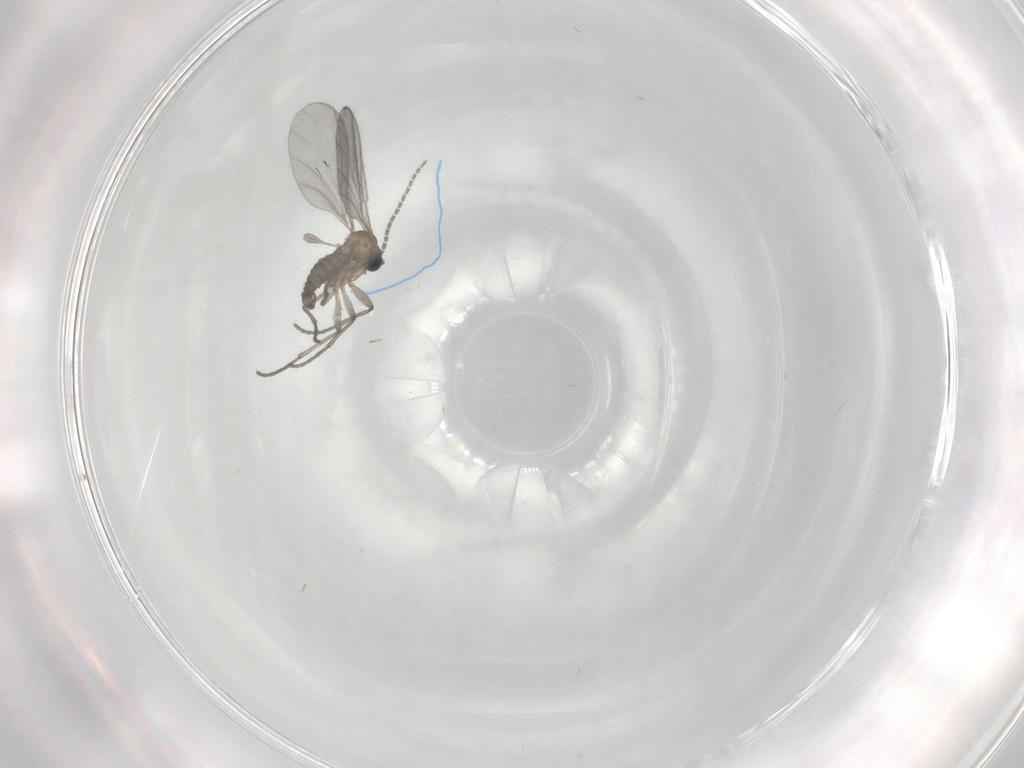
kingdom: Animalia
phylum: Arthropoda
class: Insecta
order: Diptera
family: Sciaridae
